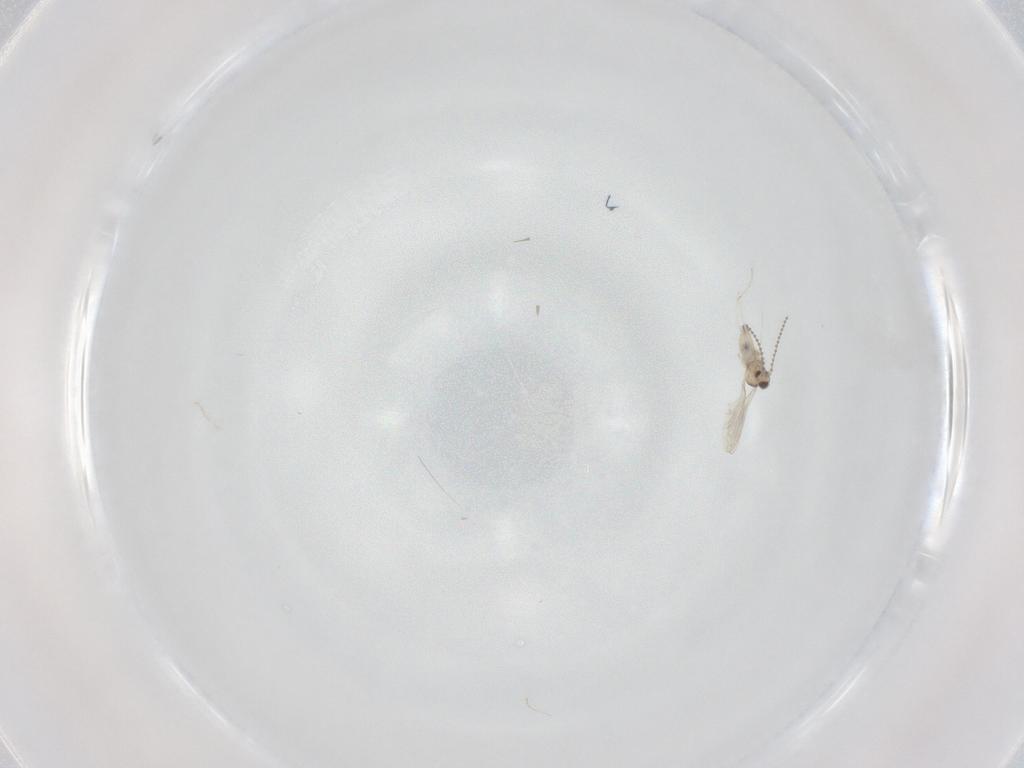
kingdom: Animalia
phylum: Arthropoda
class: Insecta
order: Diptera
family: Cecidomyiidae
